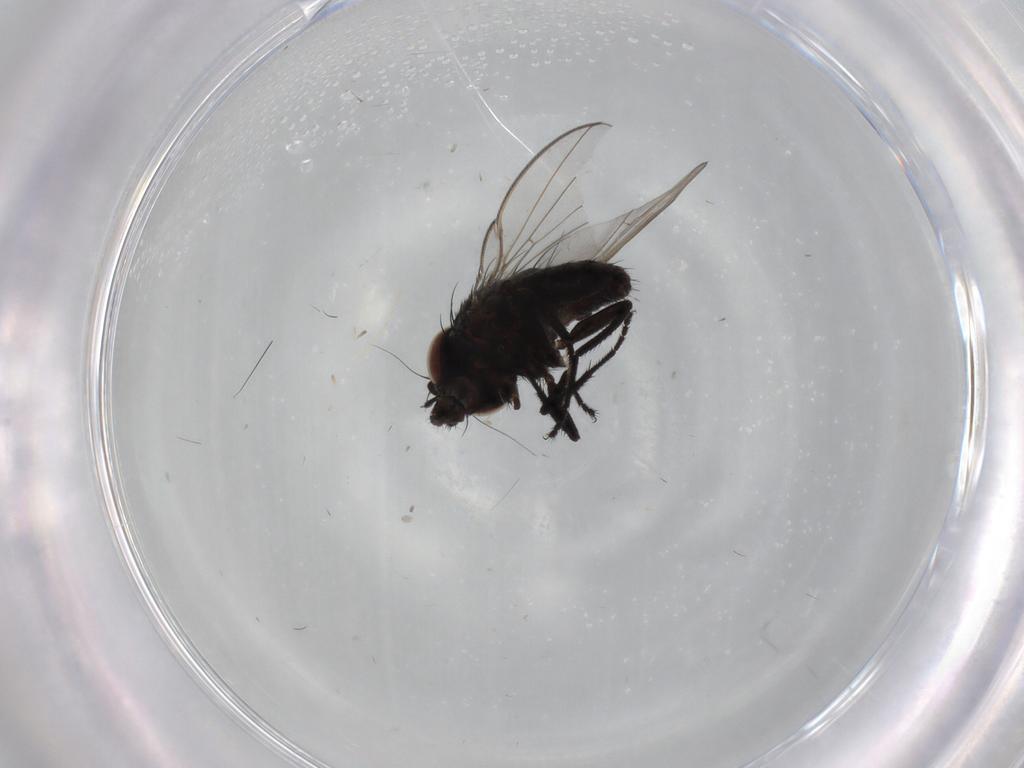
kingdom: Animalia
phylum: Arthropoda
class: Insecta
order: Diptera
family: Milichiidae
